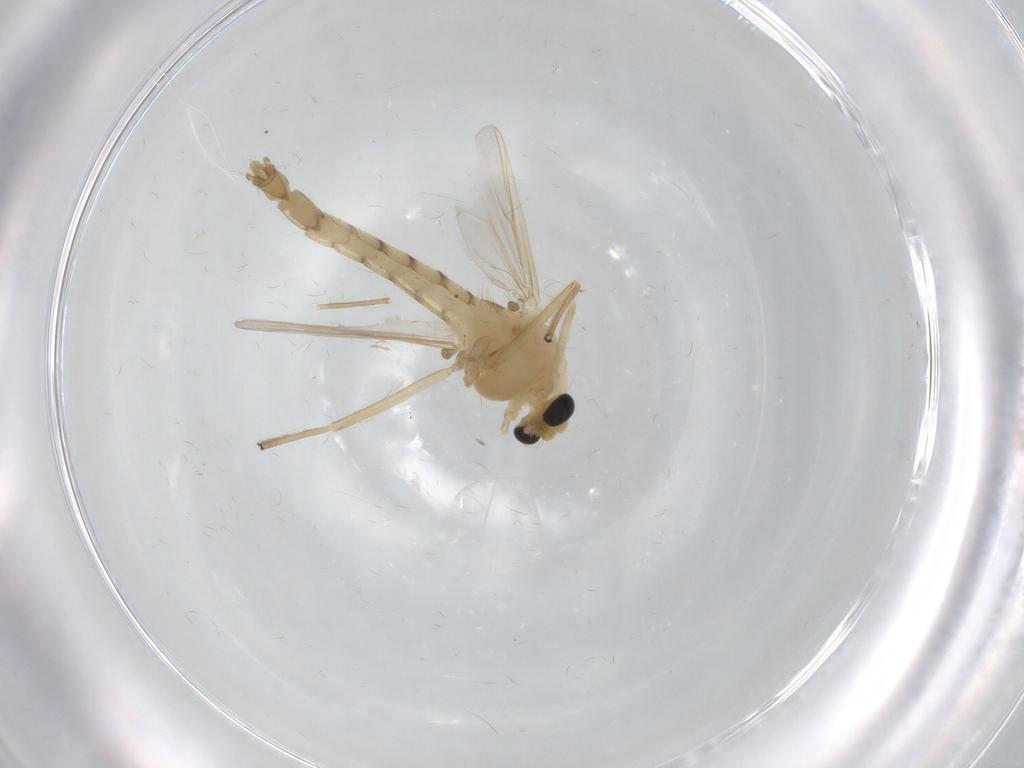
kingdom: Animalia
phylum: Arthropoda
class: Insecta
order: Diptera
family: Chironomidae
